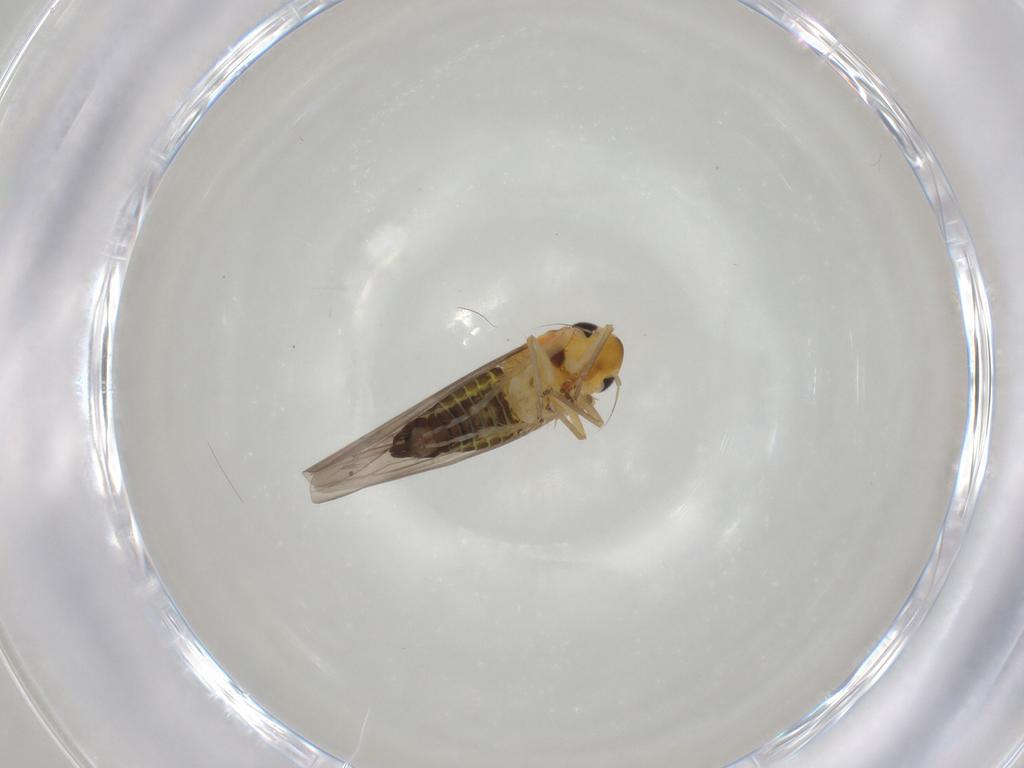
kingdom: Animalia
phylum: Arthropoda
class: Insecta
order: Hemiptera
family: Cicadellidae
